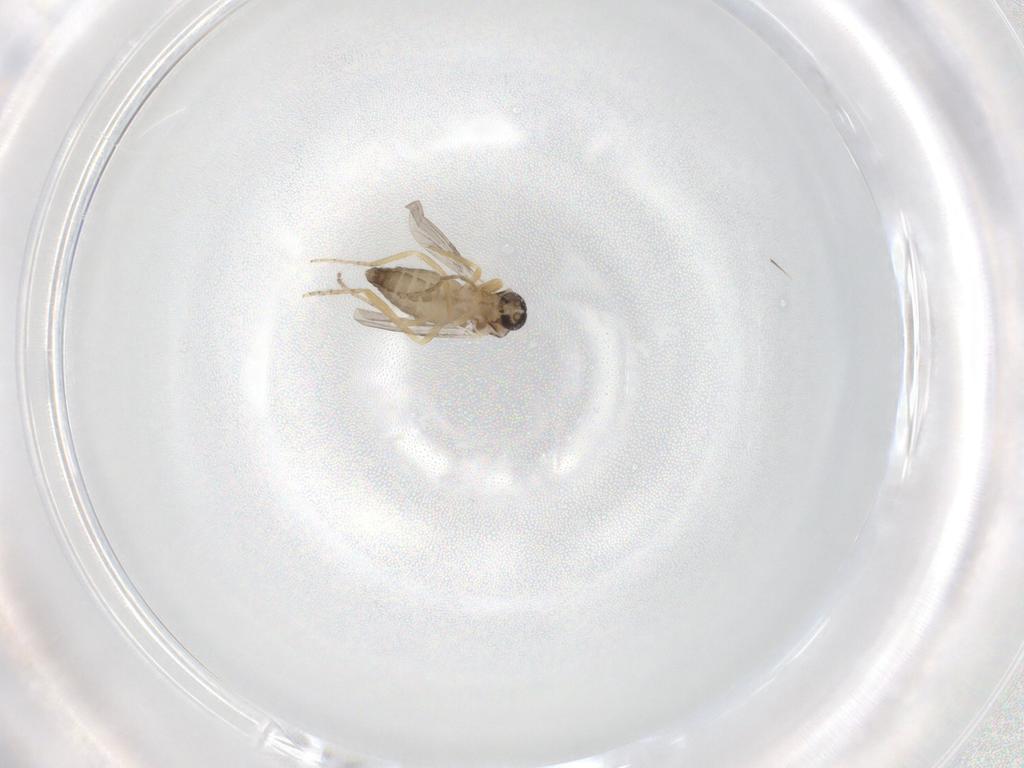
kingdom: Animalia
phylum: Arthropoda
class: Insecta
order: Diptera
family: Ceratopogonidae
